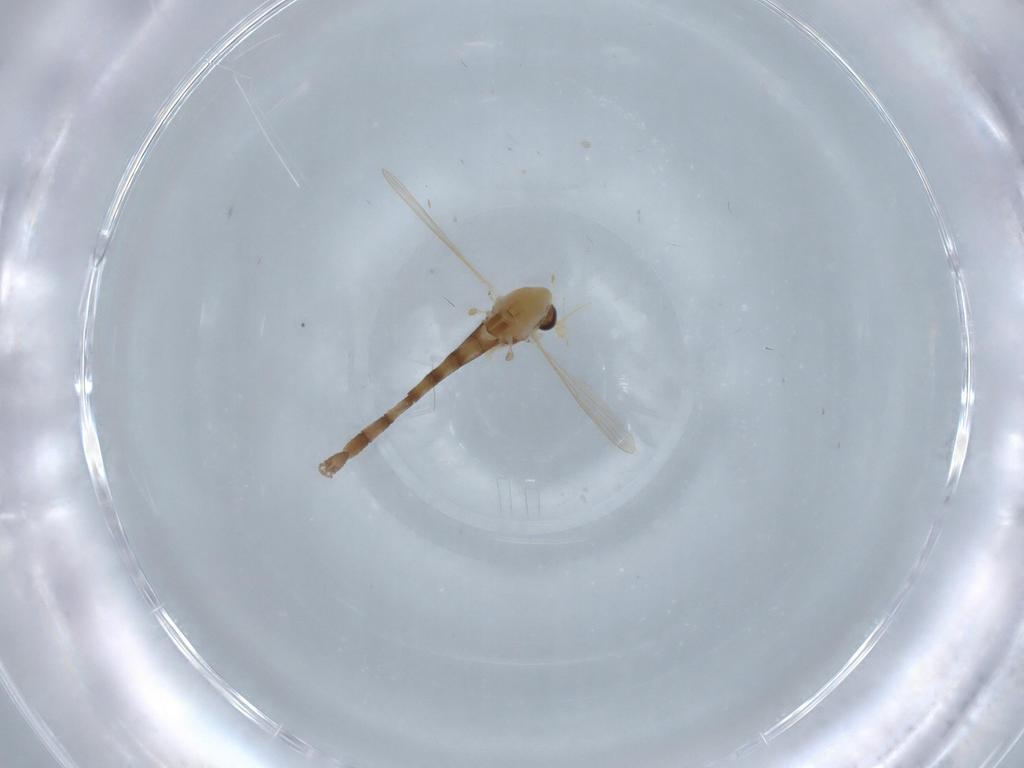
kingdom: Animalia
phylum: Arthropoda
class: Insecta
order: Diptera
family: Chironomidae
